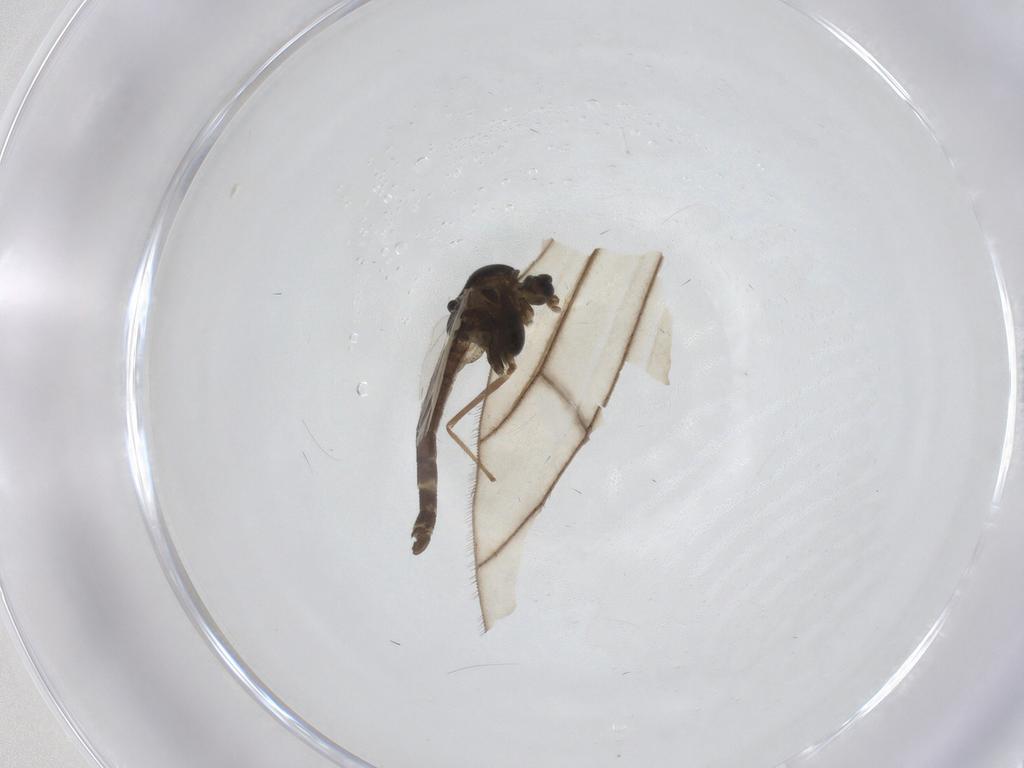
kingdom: Animalia
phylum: Arthropoda
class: Insecta
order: Diptera
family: Chironomidae
